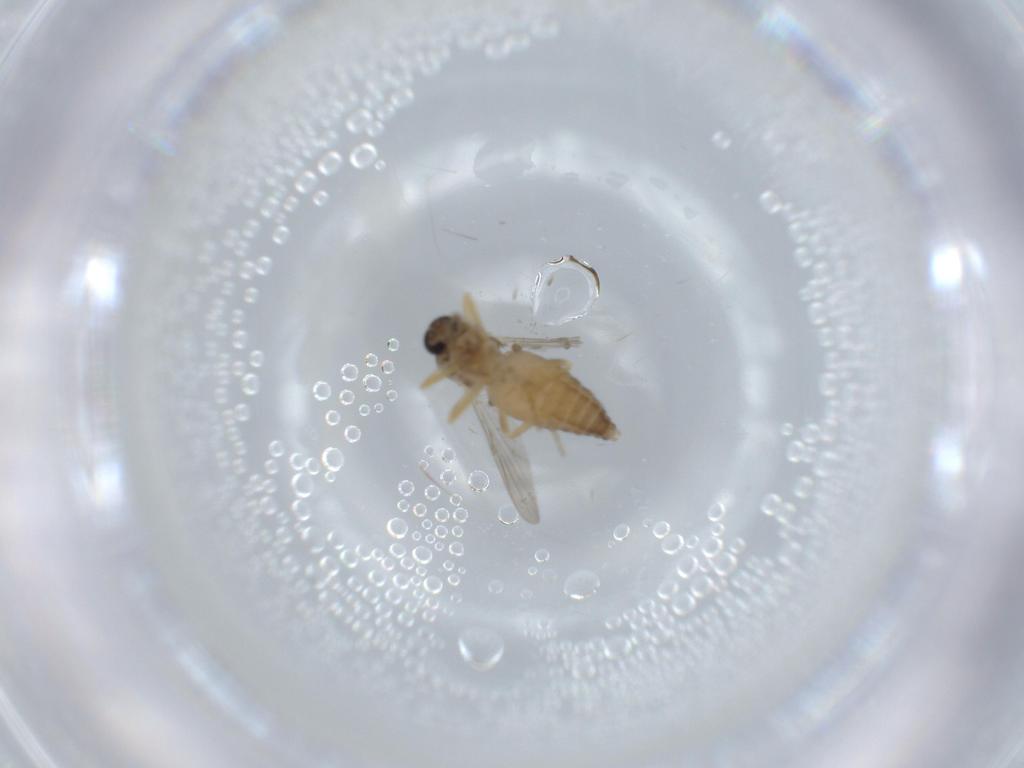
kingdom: Animalia
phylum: Arthropoda
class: Insecta
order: Diptera
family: Ceratopogonidae
